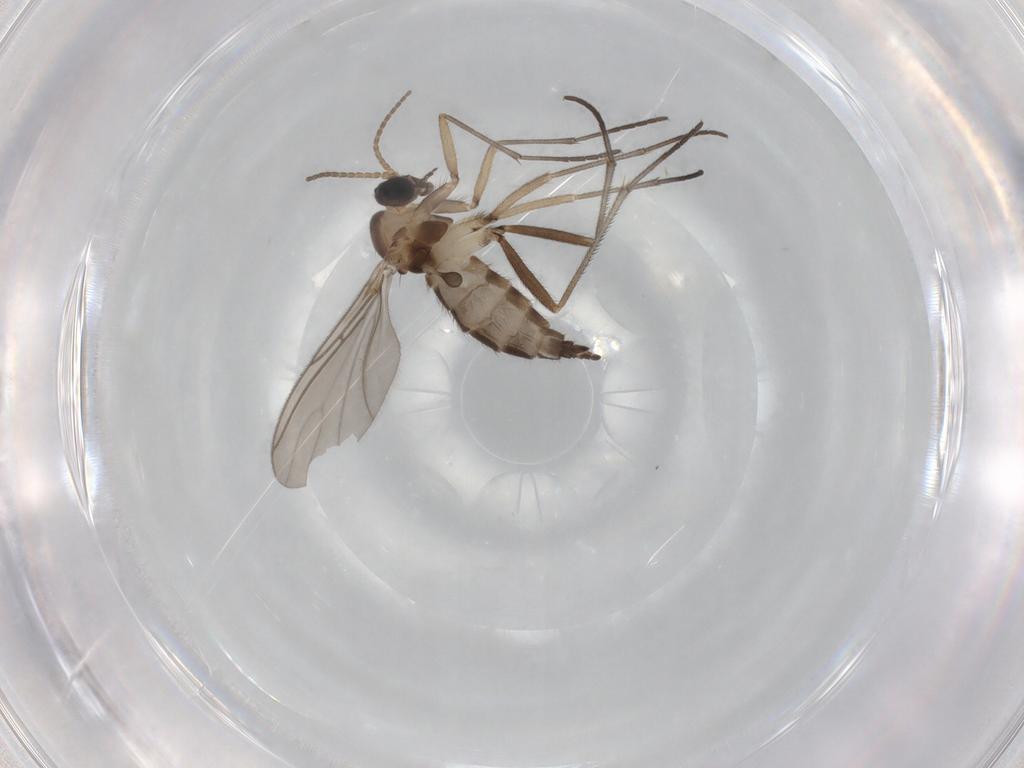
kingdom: Animalia
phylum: Arthropoda
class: Insecta
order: Diptera
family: Sciaridae
